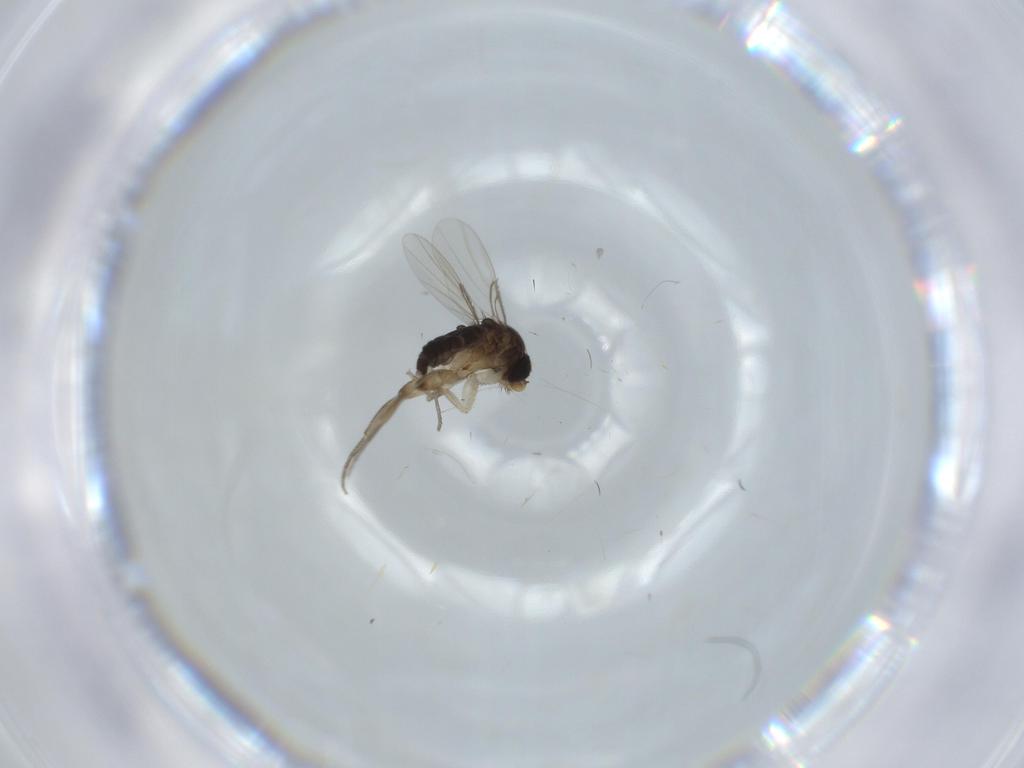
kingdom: Animalia
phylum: Arthropoda
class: Insecta
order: Diptera
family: Phoridae
